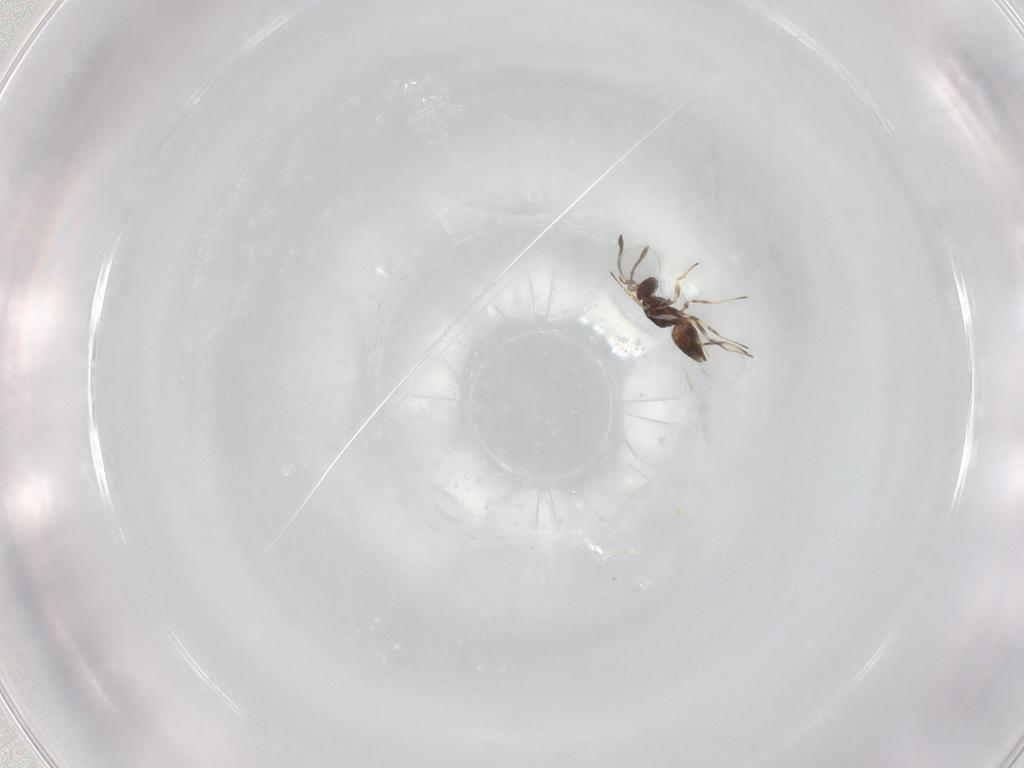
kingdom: Animalia
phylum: Arthropoda
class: Insecta
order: Hymenoptera
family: Mymaridae
